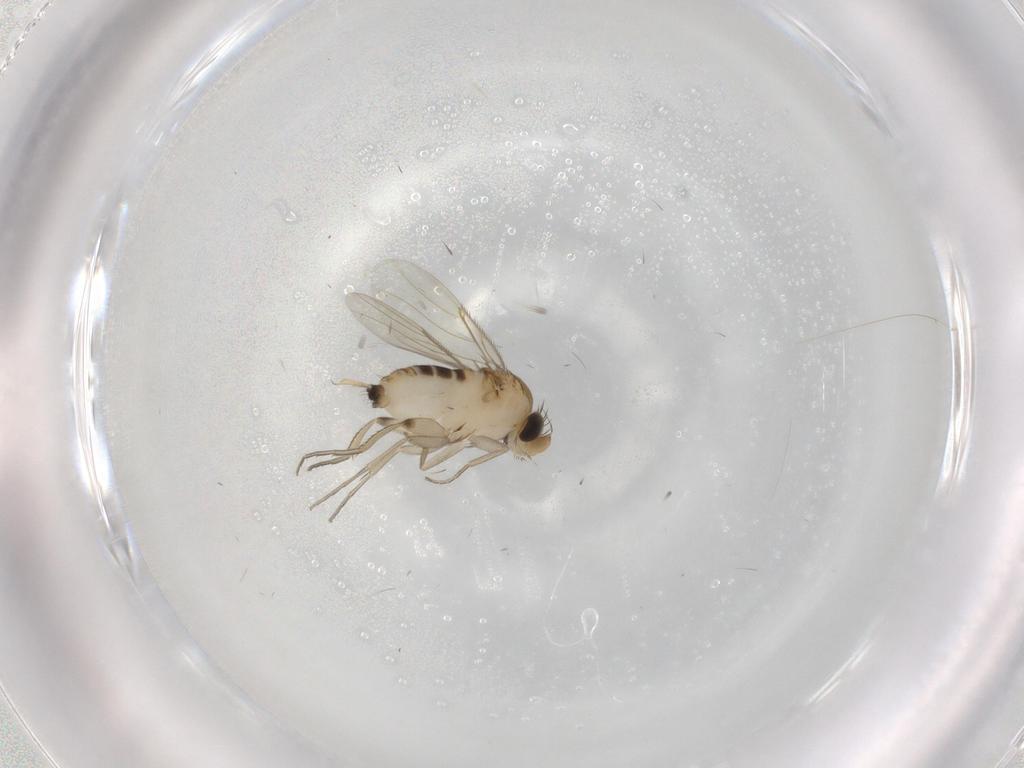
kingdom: Animalia
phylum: Arthropoda
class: Insecta
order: Diptera
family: Phoridae
